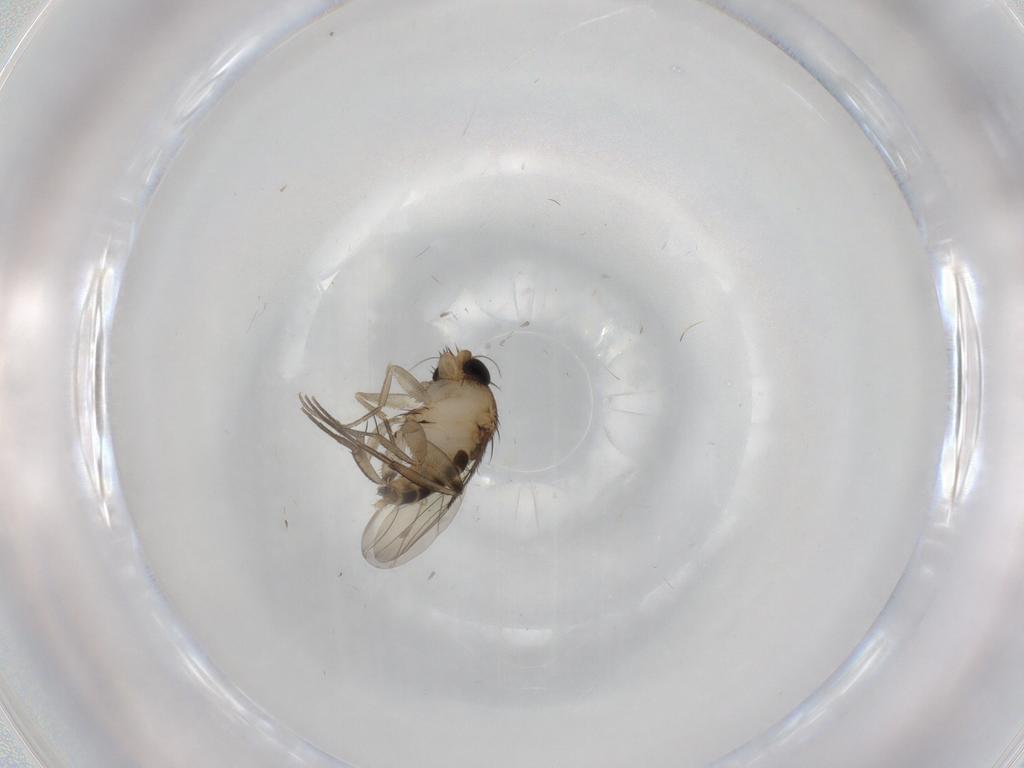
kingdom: Animalia
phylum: Arthropoda
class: Insecta
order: Diptera
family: Phoridae
